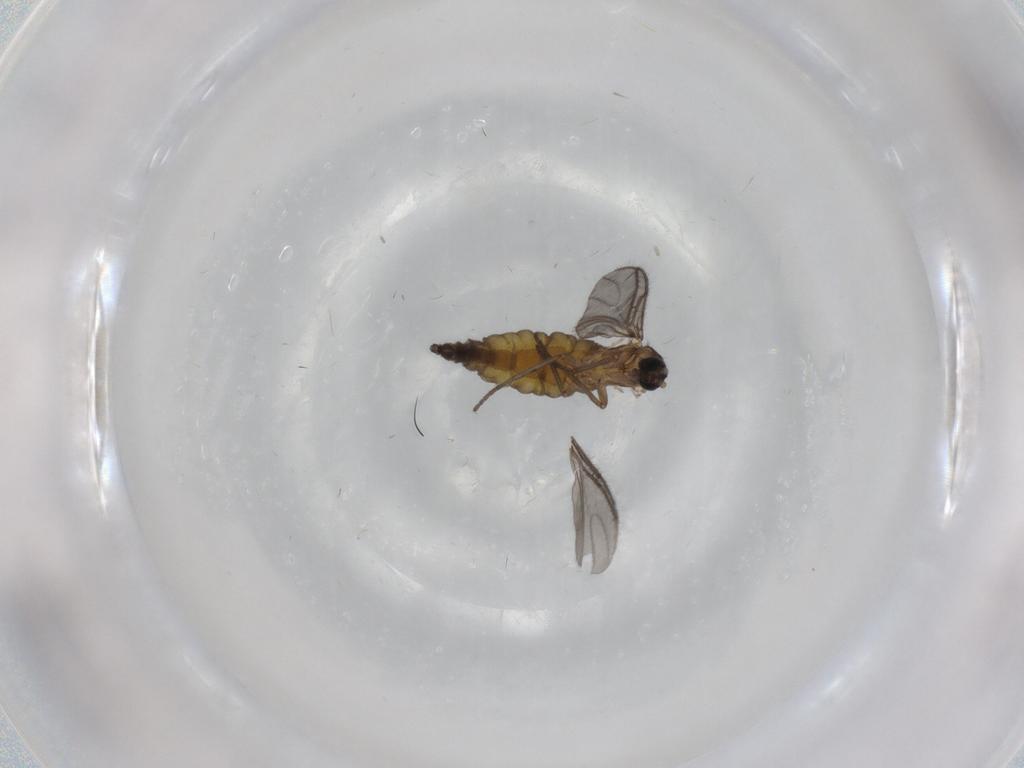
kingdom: Animalia
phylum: Arthropoda
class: Insecta
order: Diptera
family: Sciaridae
